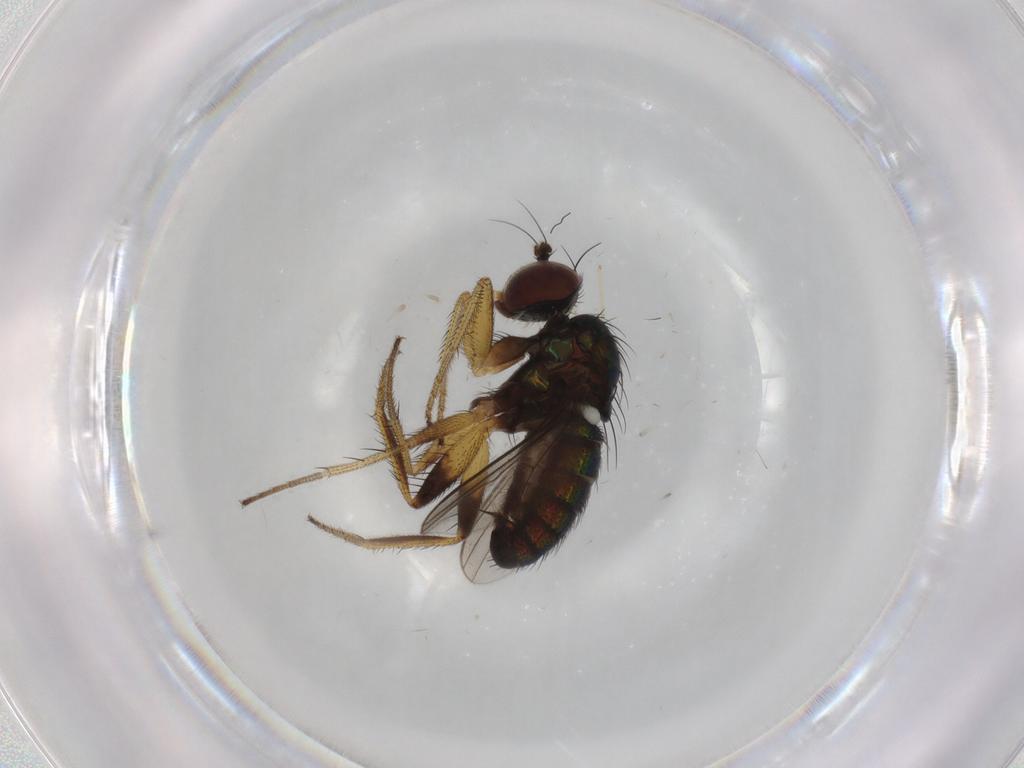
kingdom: Animalia
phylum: Arthropoda
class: Insecta
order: Diptera
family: Dolichopodidae
